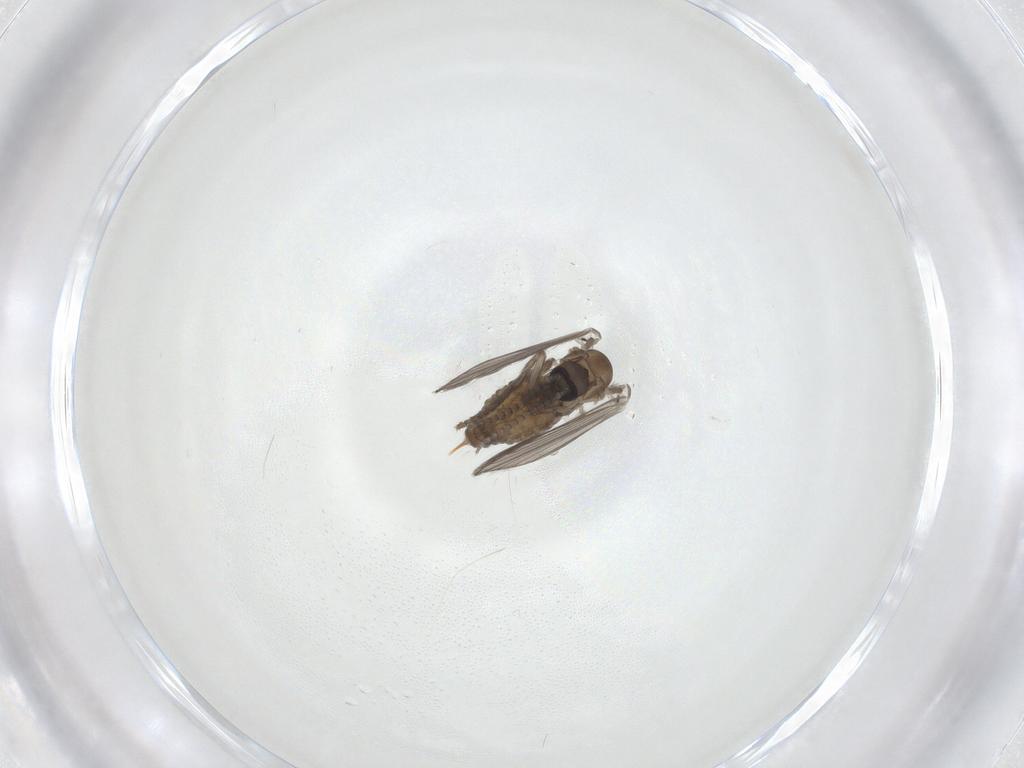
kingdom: Animalia
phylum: Arthropoda
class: Insecta
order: Diptera
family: Psychodidae
